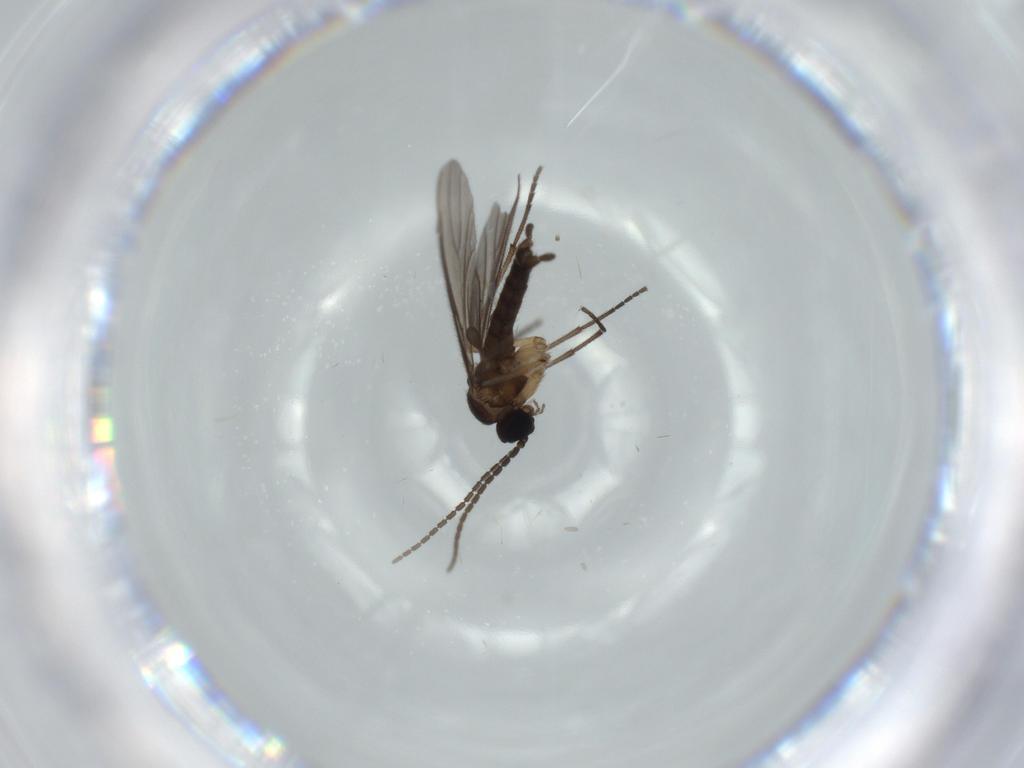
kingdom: Animalia
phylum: Arthropoda
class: Insecta
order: Diptera
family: Sciaridae
